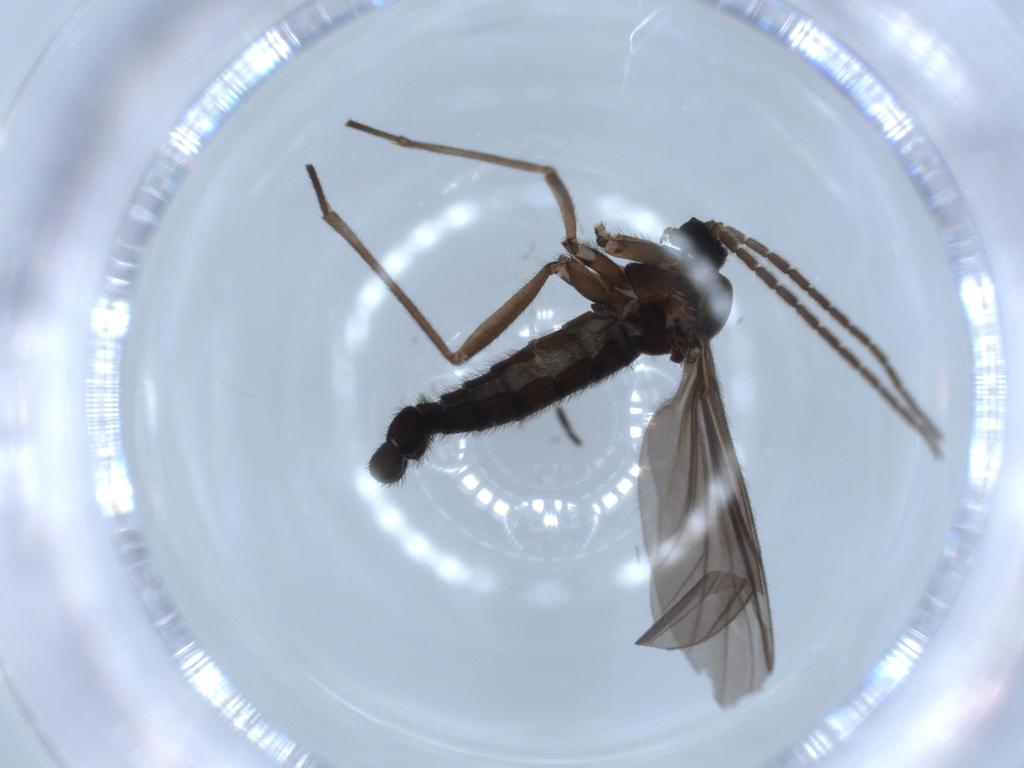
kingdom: Animalia
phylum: Arthropoda
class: Insecta
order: Diptera
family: Sciaridae
